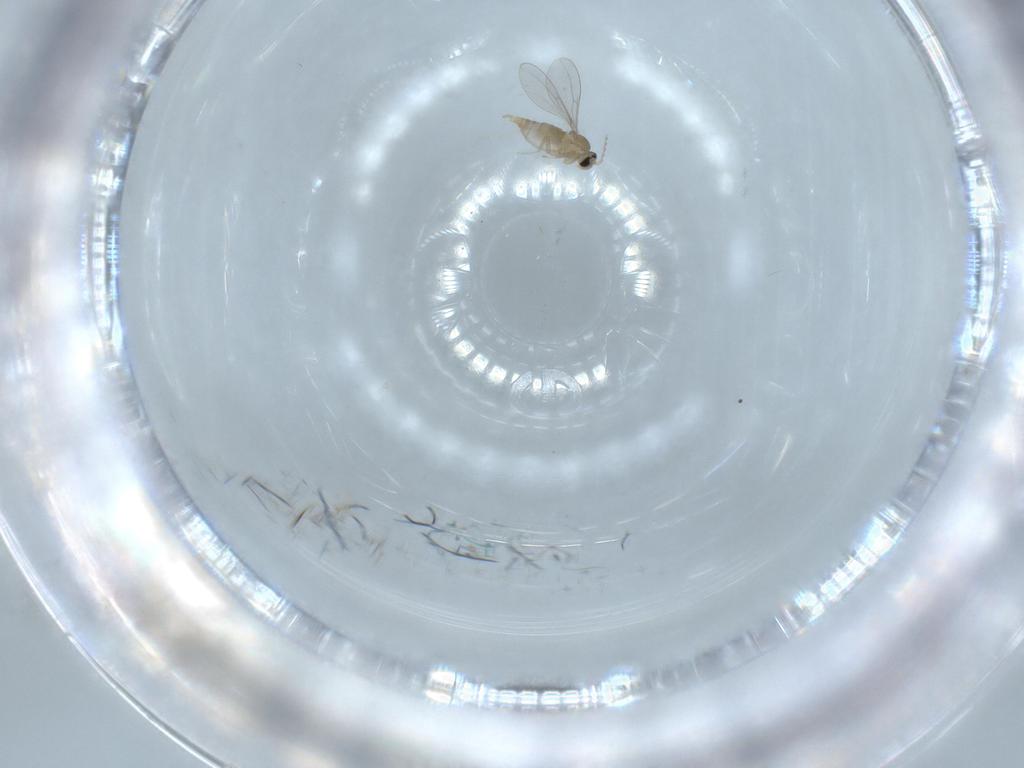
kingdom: Animalia
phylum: Arthropoda
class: Insecta
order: Diptera
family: Cecidomyiidae
